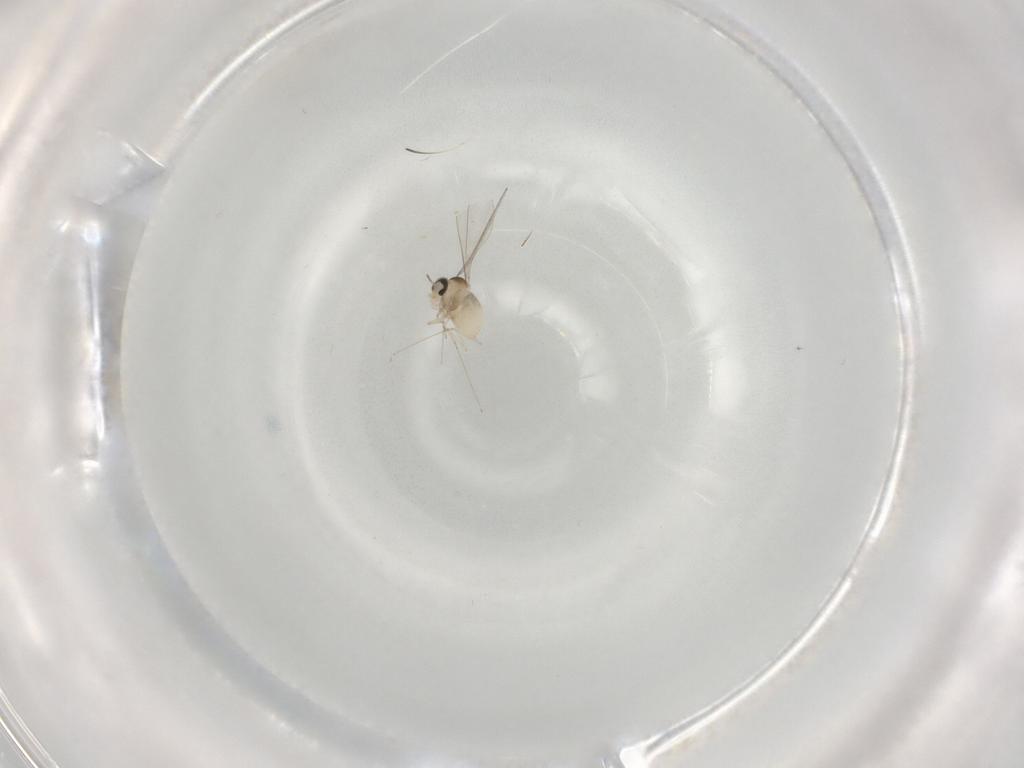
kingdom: Animalia
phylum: Arthropoda
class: Insecta
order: Diptera
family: Cecidomyiidae
